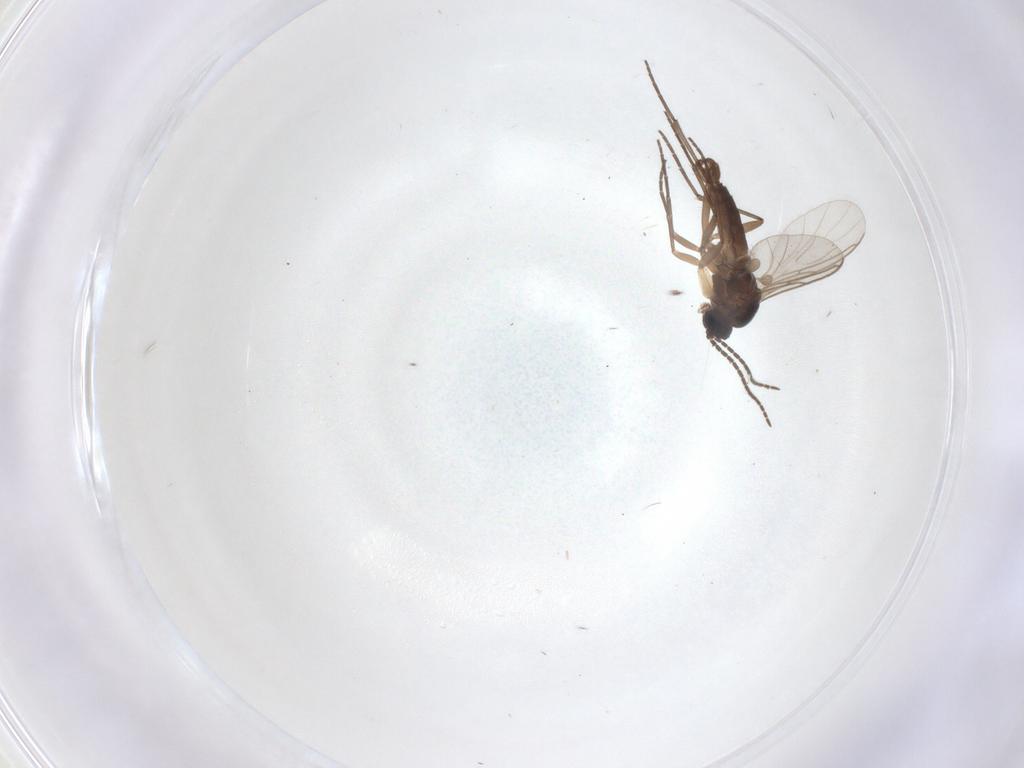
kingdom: Animalia
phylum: Arthropoda
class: Insecta
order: Diptera
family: Sciaridae
